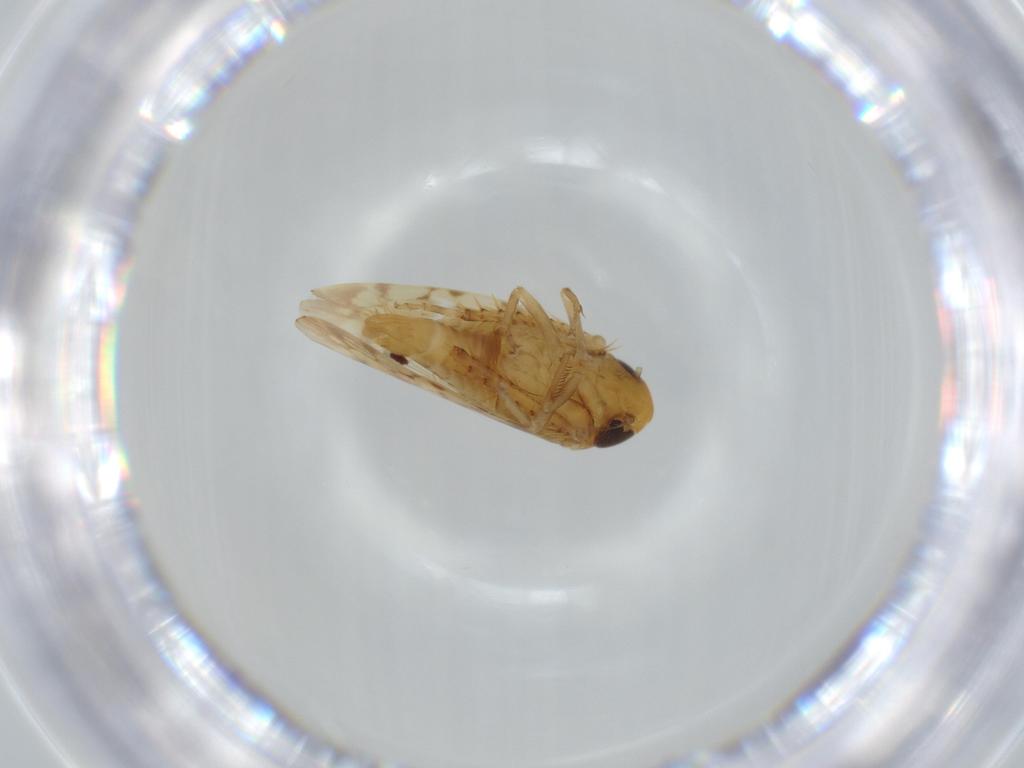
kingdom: Animalia
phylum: Arthropoda
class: Insecta
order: Hemiptera
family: Cicadellidae
